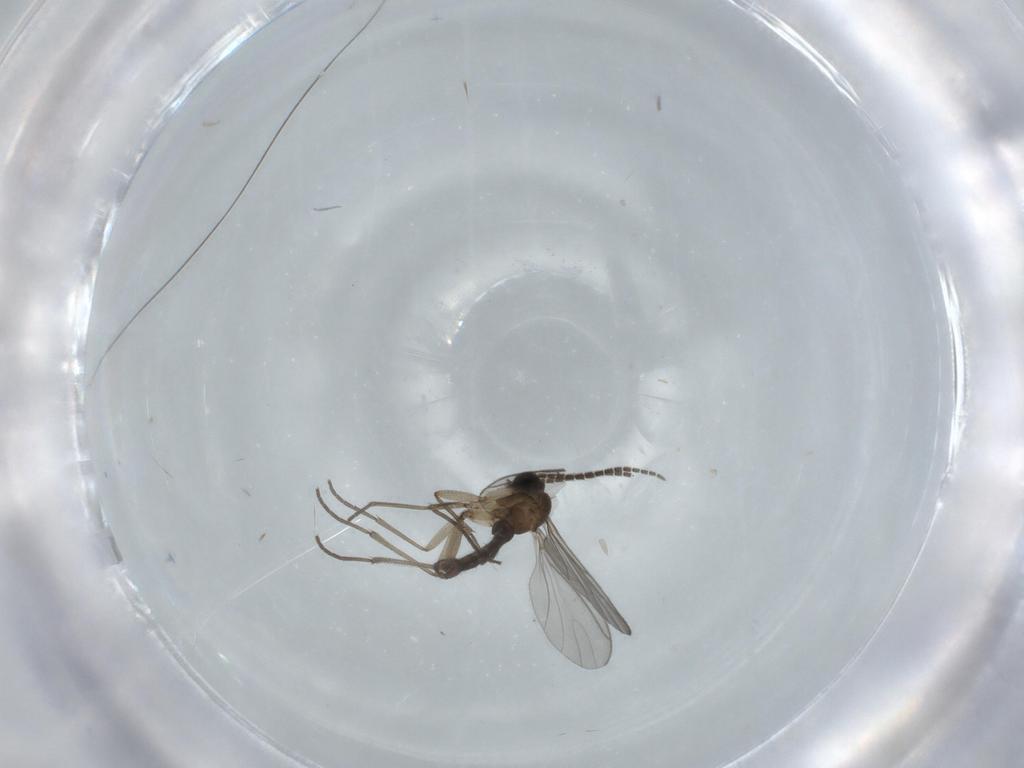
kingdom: Animalia
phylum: Arthropoda
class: Insecta
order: Diptera
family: Sciaridae
